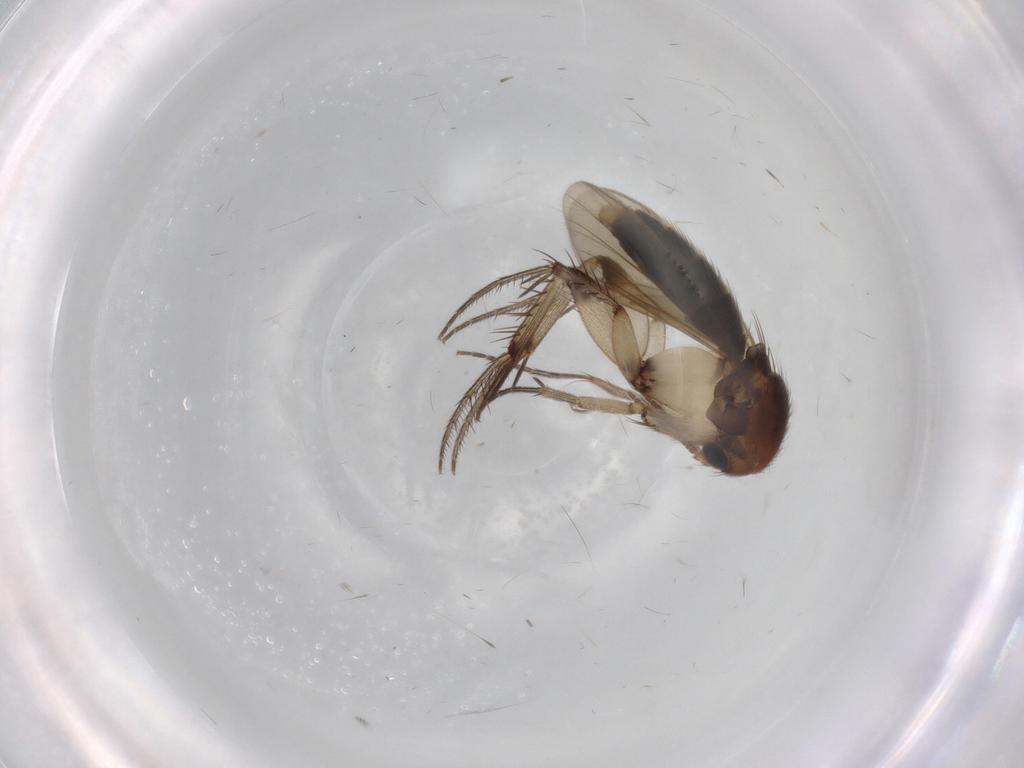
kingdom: Animalia
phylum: Arthropoda
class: Insecta
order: Diptera
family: Mycetophilidae
